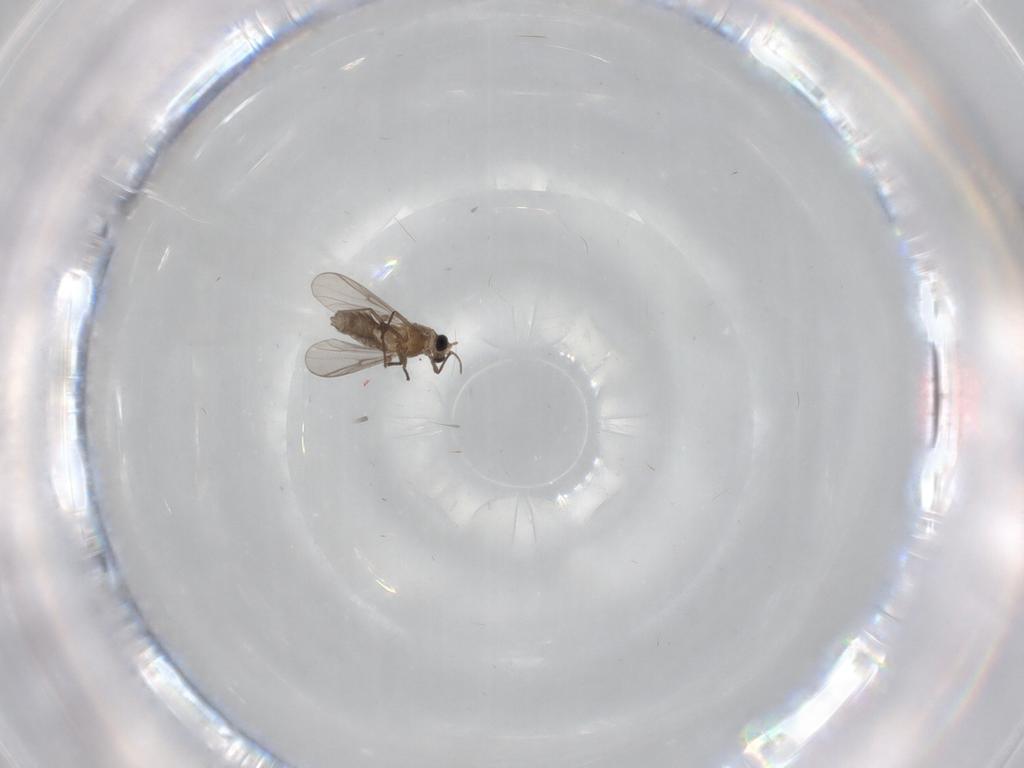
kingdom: Animalia
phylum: Arthropoda
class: Insecta
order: Diptera
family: Chironomidae
